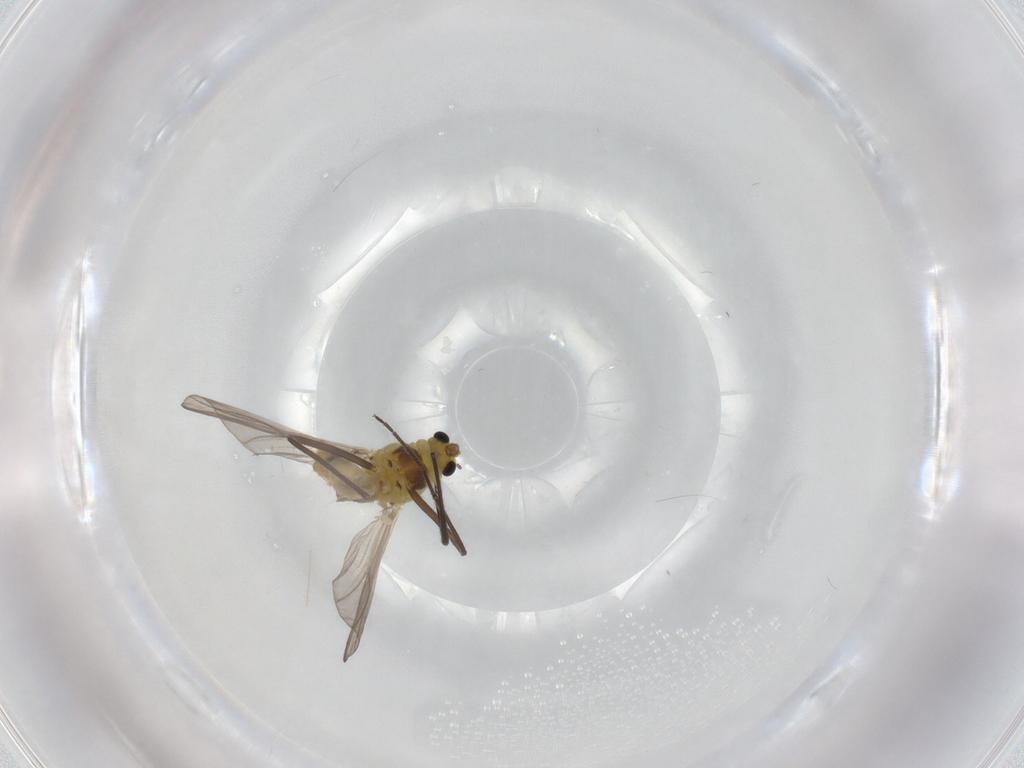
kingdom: Animalia
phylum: Arthropoda
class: Insecta
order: Diptera
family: Chironomidae
